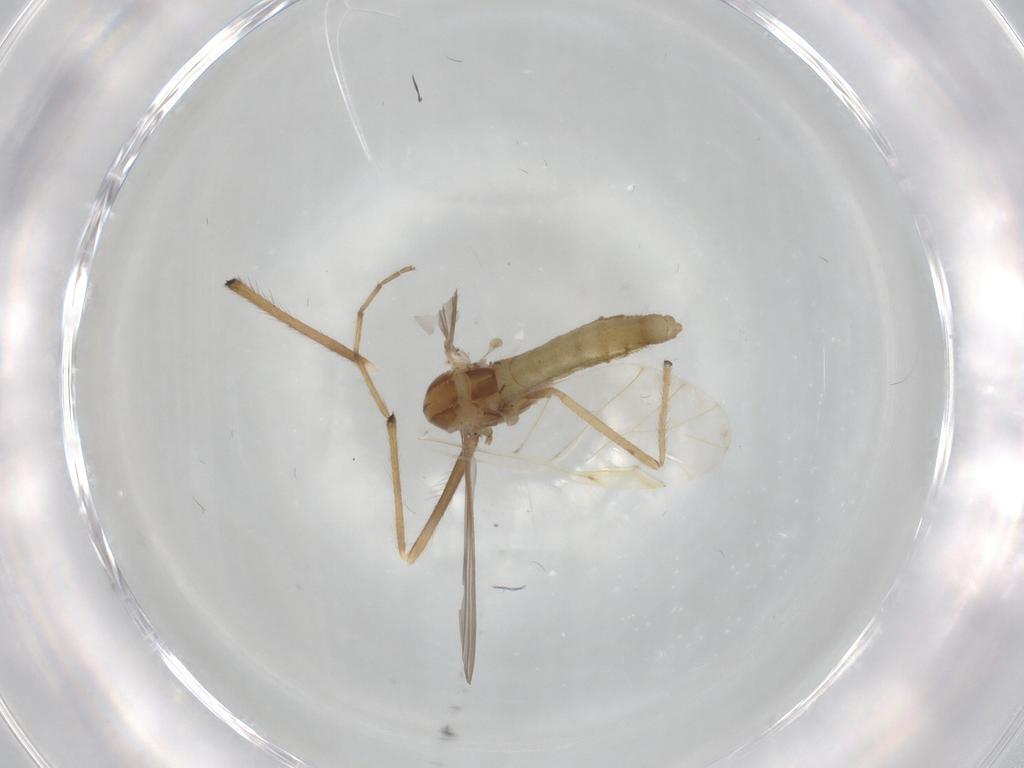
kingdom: Animalia
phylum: Arthropoda
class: Insecta
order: Diptera
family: Chironomidae
